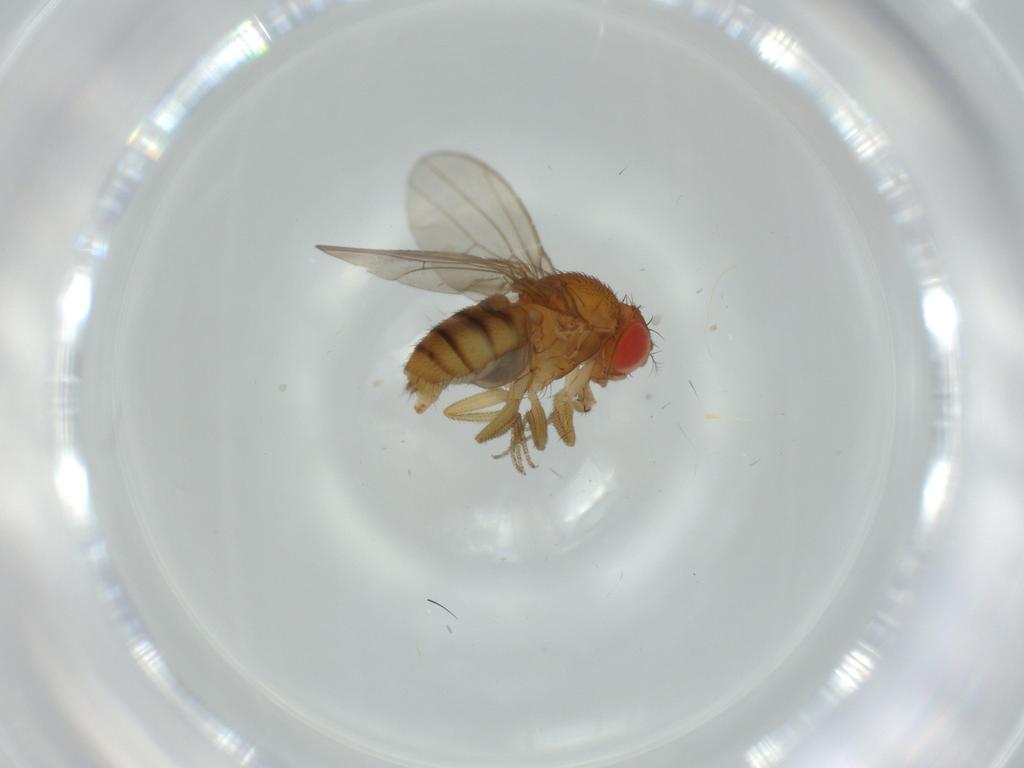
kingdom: Animalia
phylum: Arthropoda
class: Insecta
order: Diptera
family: Drosophilidae
